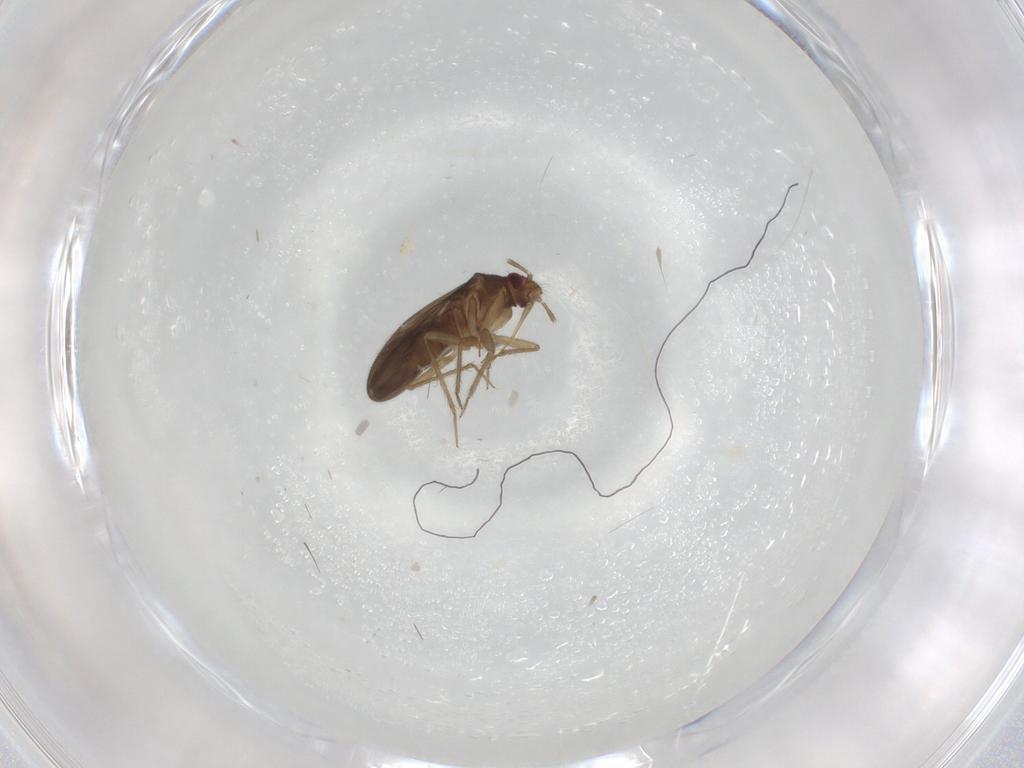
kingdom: Animalia
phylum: Arthropoda
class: Insecta
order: Hemiptera
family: Ceratocombidae
